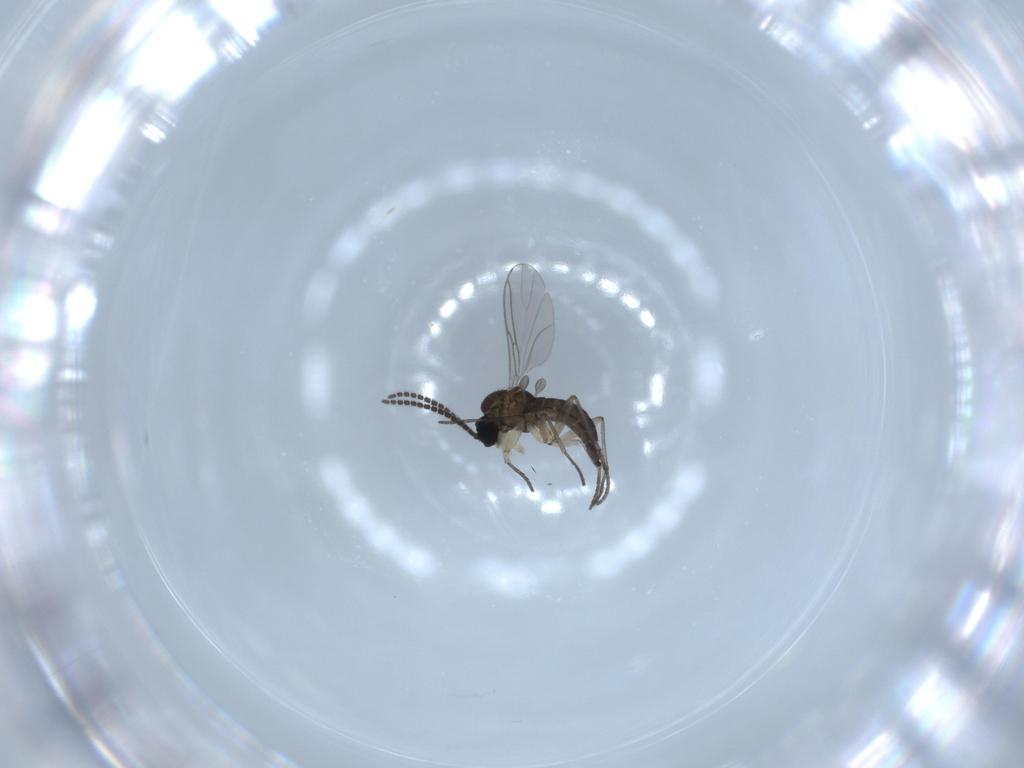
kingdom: Animalia
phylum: Arthropoda
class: Insecta
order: Diptera
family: Sciaridae
